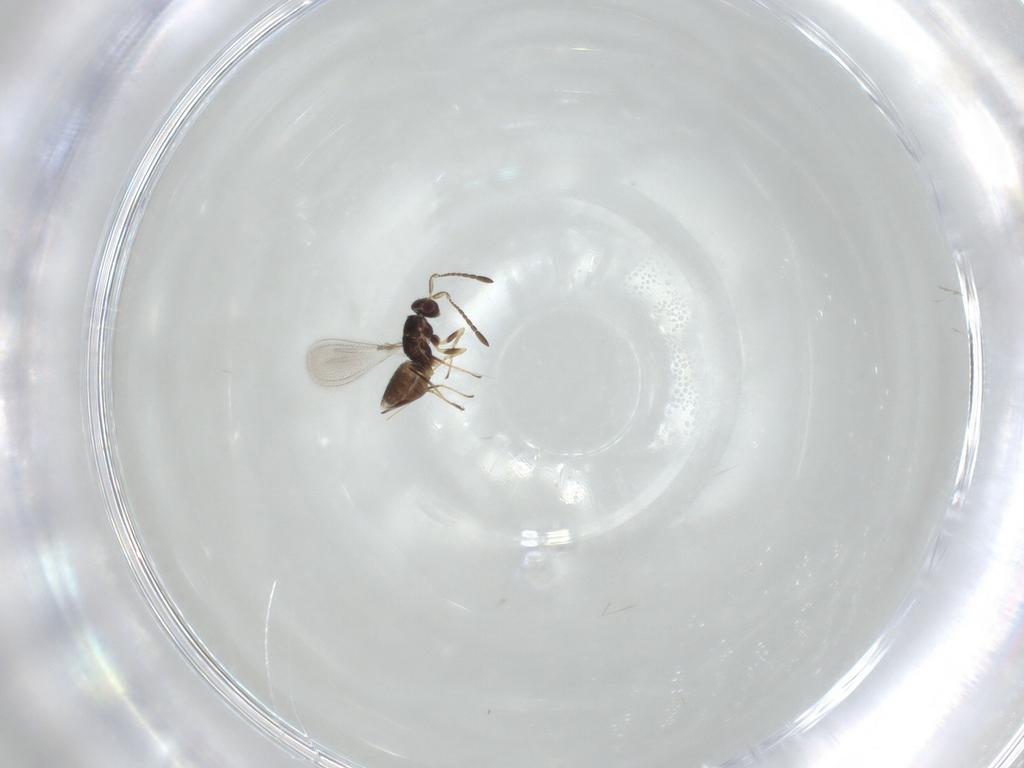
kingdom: Animalia
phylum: Arthropoda
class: Insecta
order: Hymenoptera
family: Mymaridae
